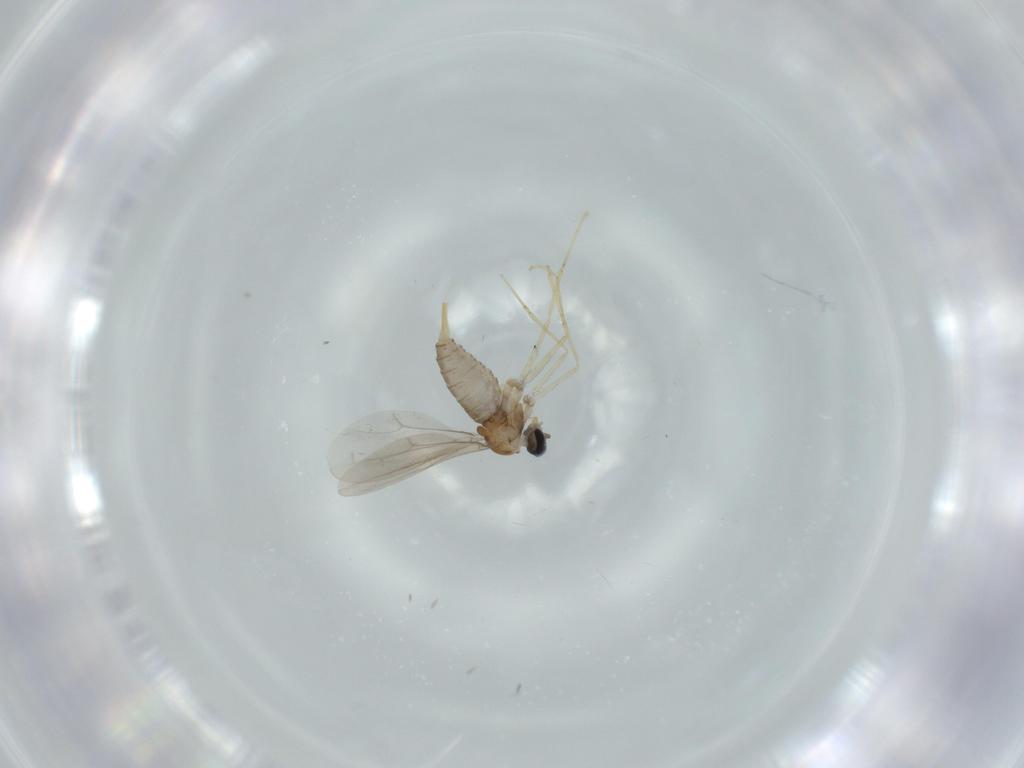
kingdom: Animalia
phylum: Arthropoda
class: Insecta
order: Diptera
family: Cecidomyiidae
